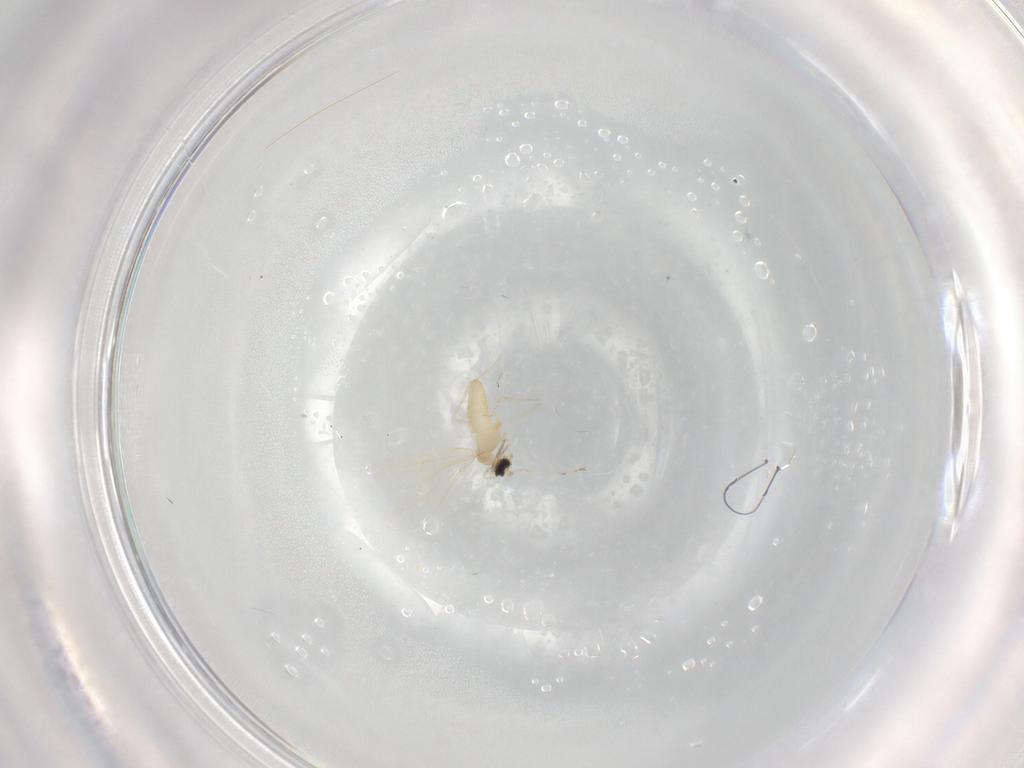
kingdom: Animalia
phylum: Arthropoda
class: Insecta
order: Diptera
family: Cecidomyiidae
